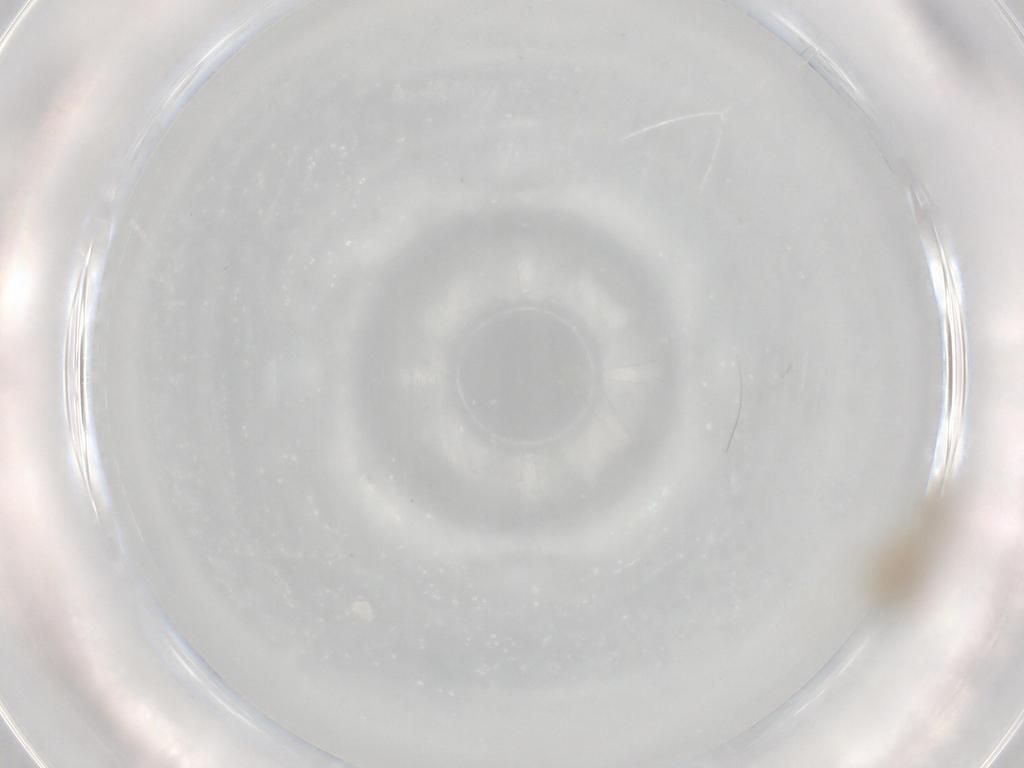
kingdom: Animalia
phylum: Arthropoda
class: Insecta
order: Diptera
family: Cecidomyiidae
